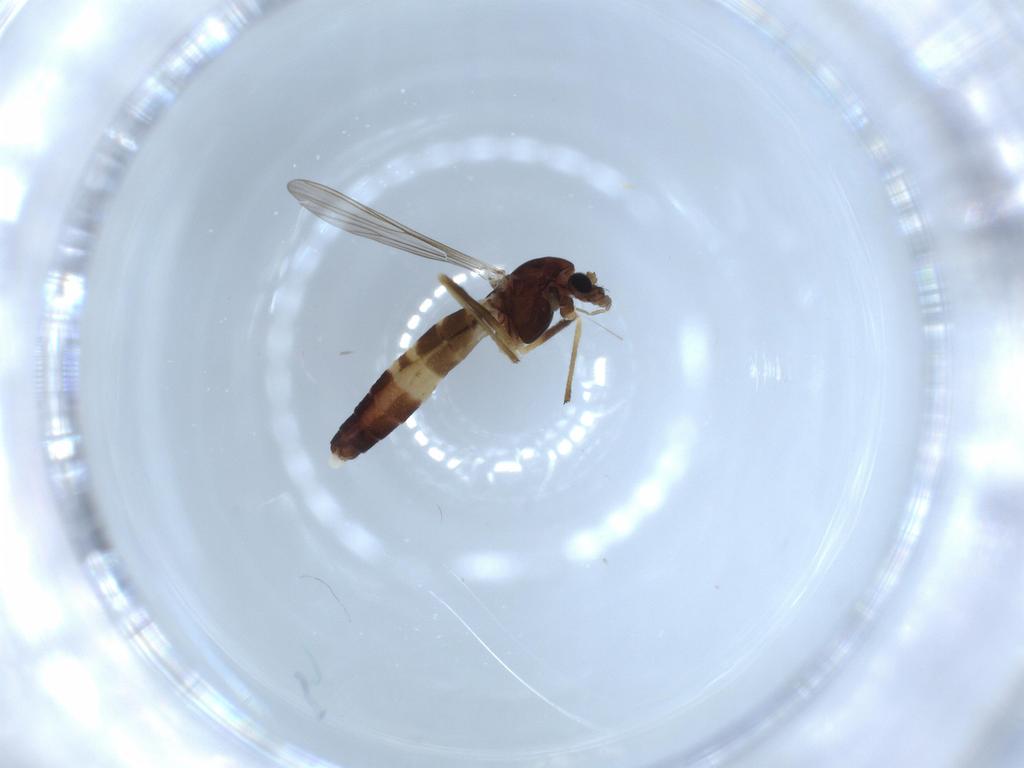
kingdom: Animalia
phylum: Arthropoda
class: Insecta
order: Diptera
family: Chironomidae
